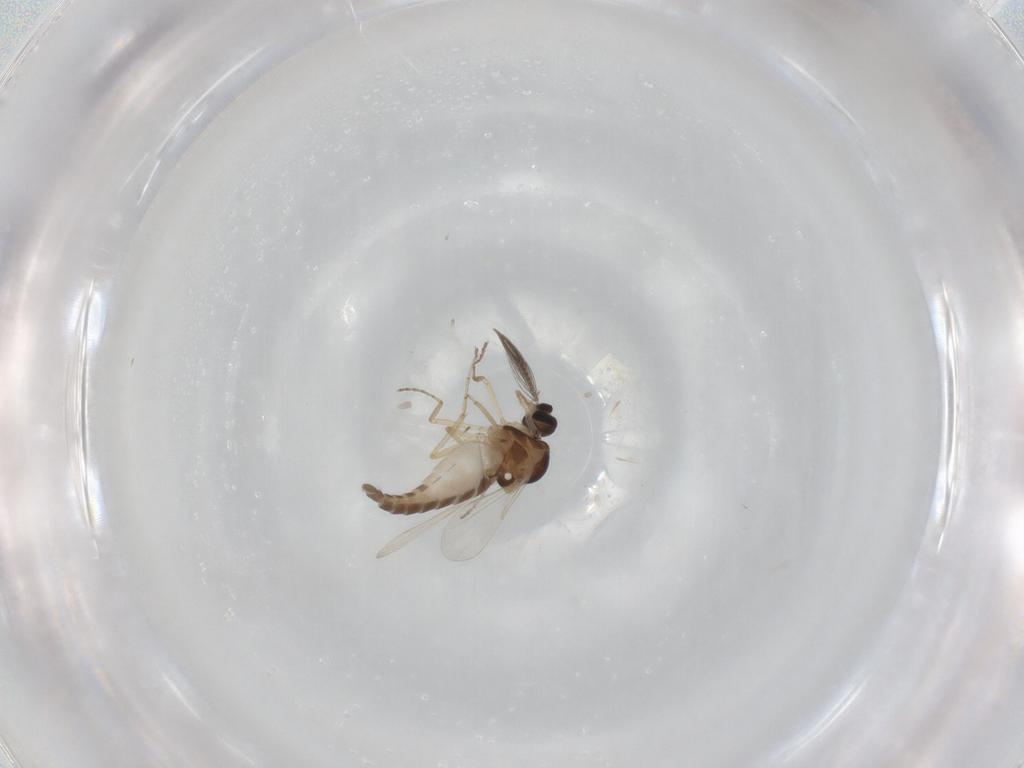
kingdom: Animalia
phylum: Arthropoda
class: Insecta
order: Diptera
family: Ceratopogonidae
